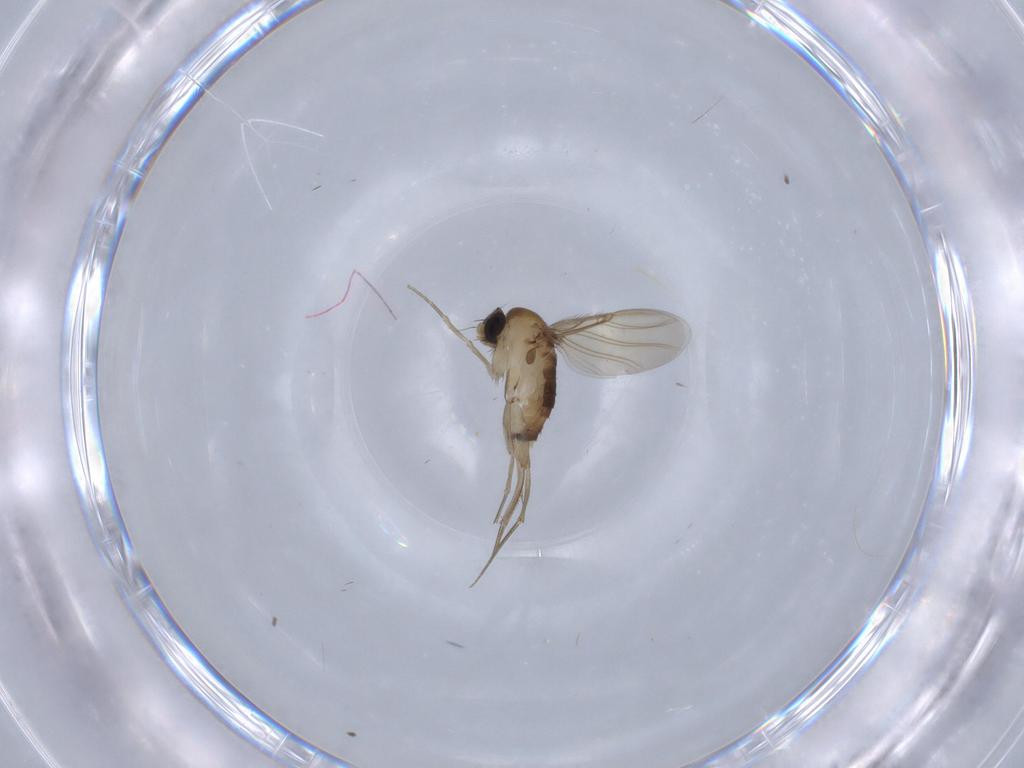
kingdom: Animalia
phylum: Arthropoda
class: Insecta
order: Diptera
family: Phoridae
